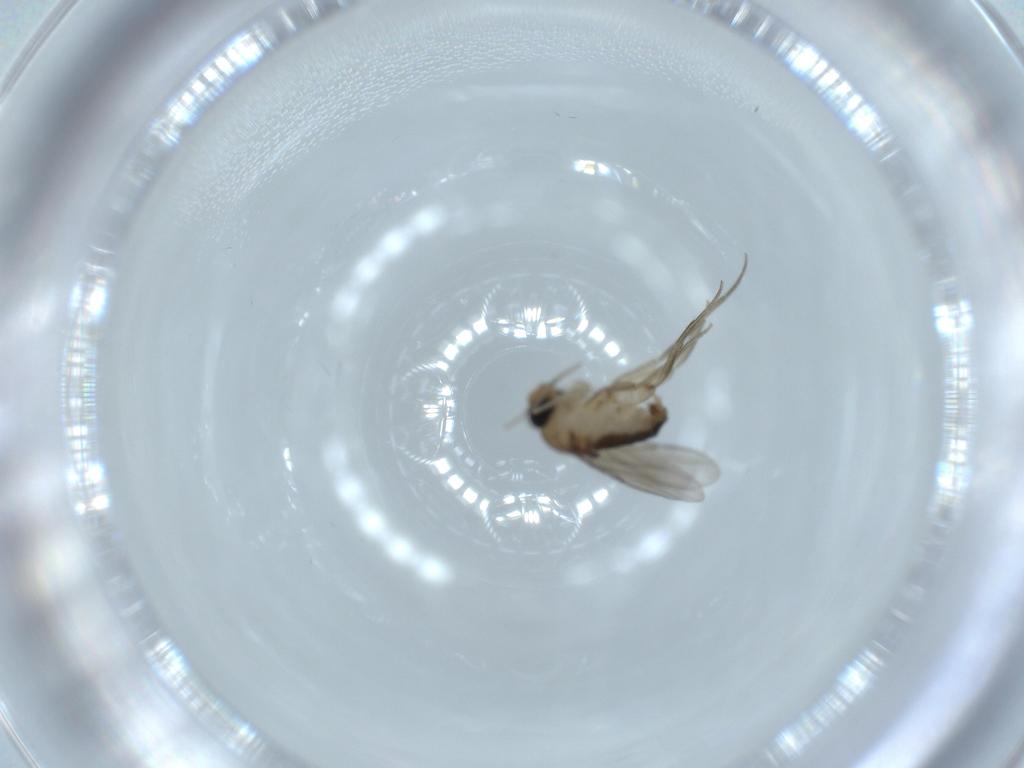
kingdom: Animalia
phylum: Arthropoda
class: Insecta
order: Diptera
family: Phoridae
